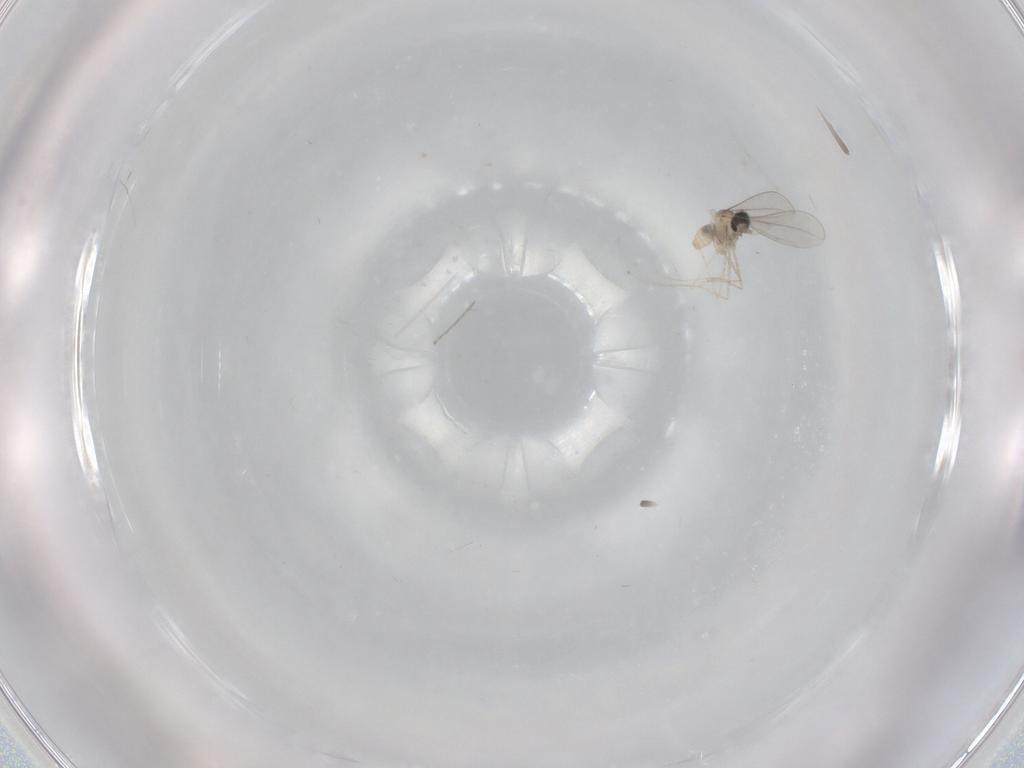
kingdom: Animalia
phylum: Arthropoda
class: Insecta
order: Diptera
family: Cecidomyiidae
